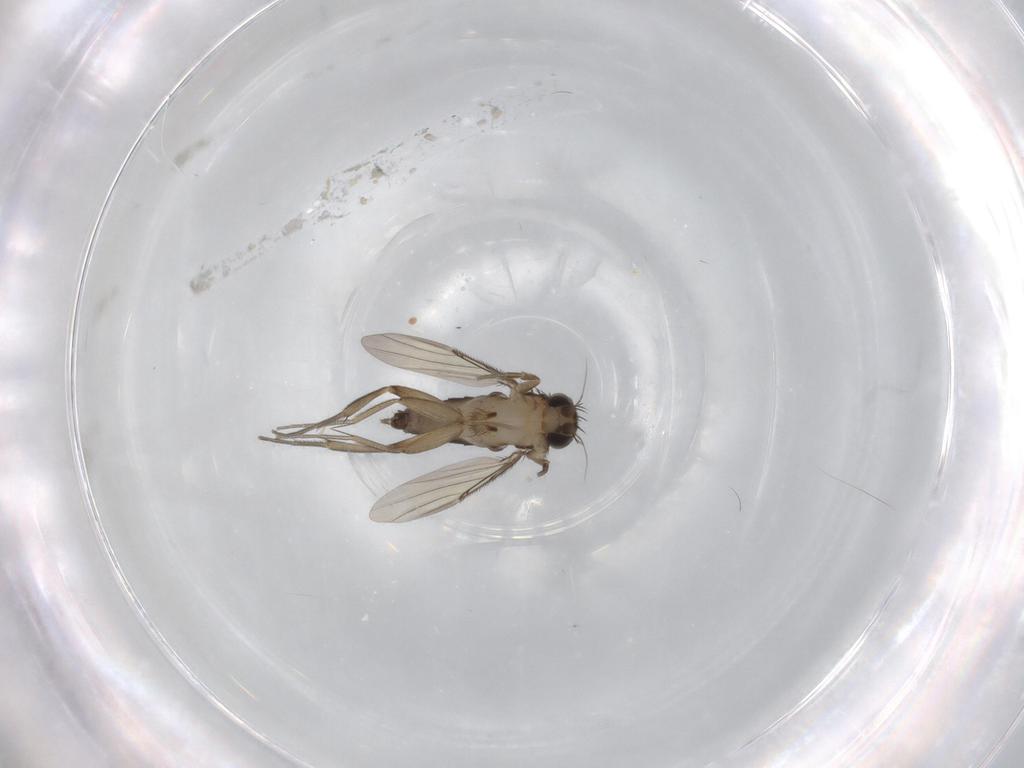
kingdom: Animalia
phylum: Arthropoda
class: Insecta
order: Diptera
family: Phoridae
